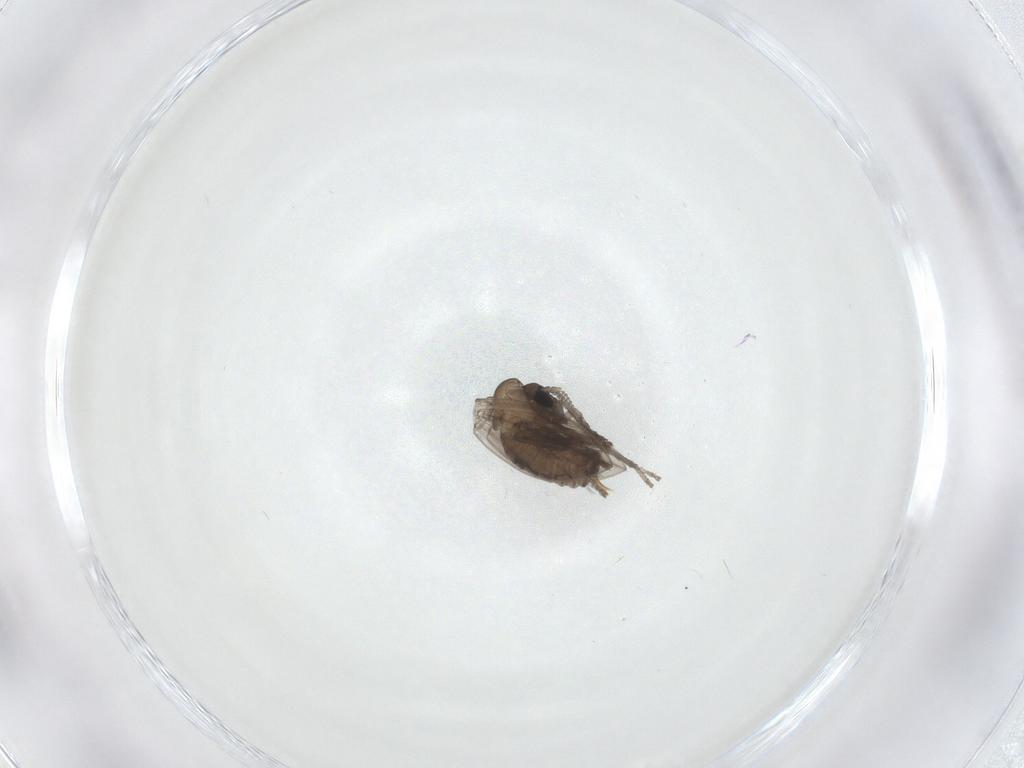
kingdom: Animalia
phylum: Arthropoda
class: Insecta
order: Diptera
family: Psychodidae
